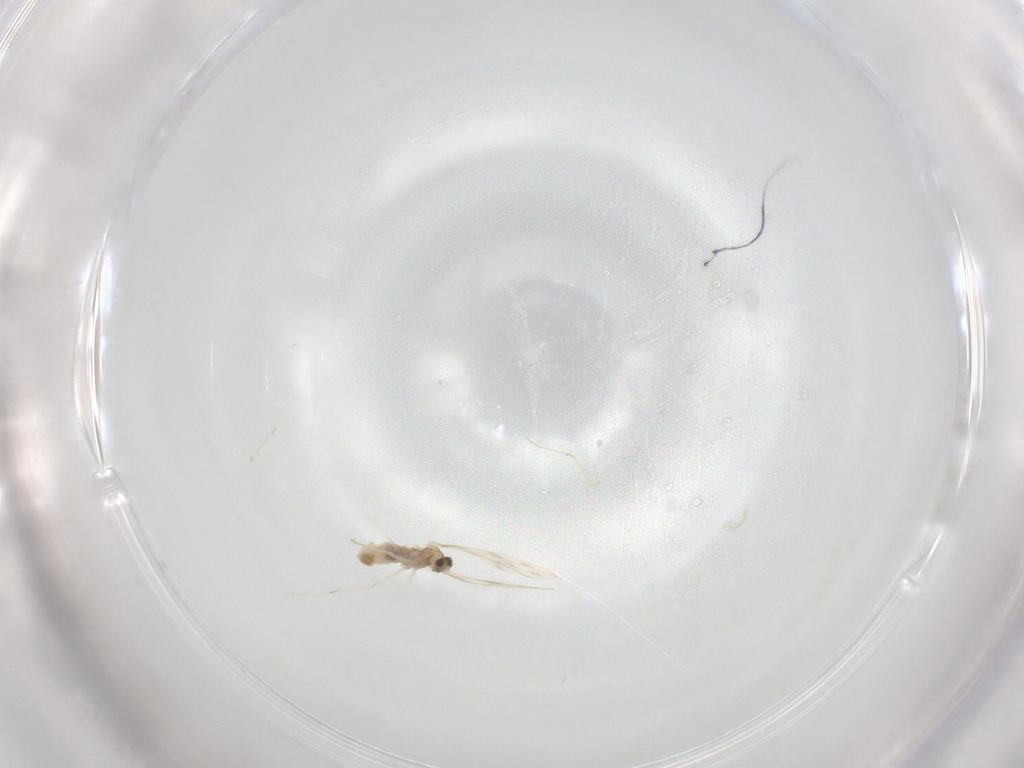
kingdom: Animalia
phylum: Arthropoda
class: Insecta
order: Diptera
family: Cecidomyiidae
